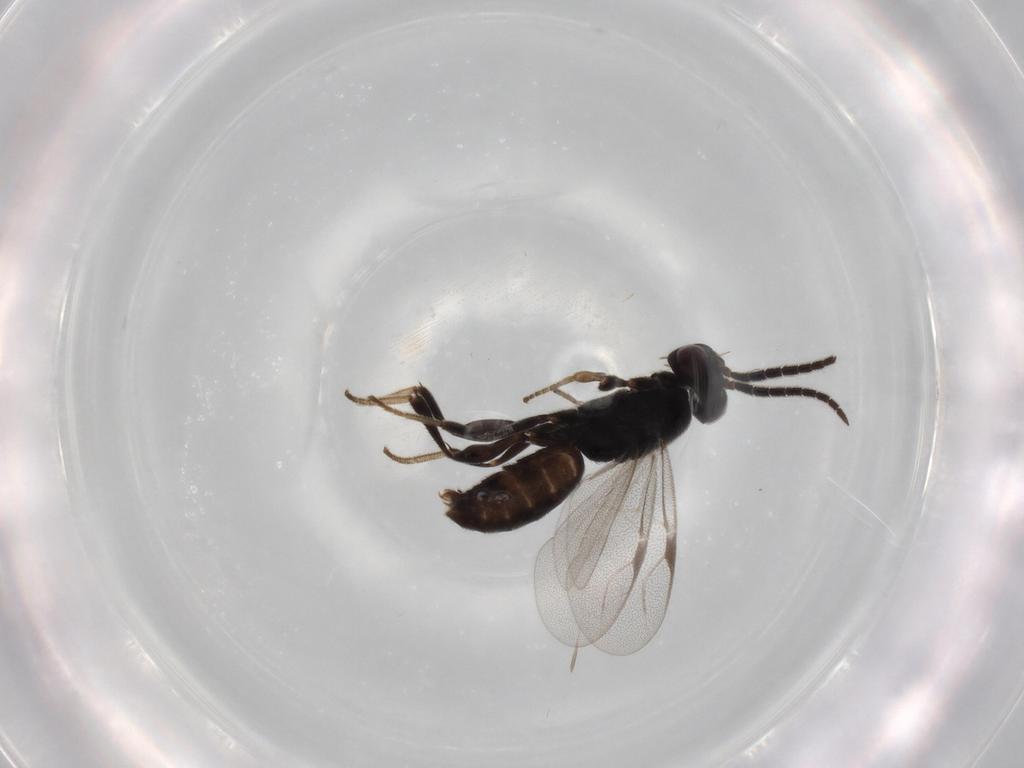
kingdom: Animalia
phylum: Arthropoda
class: Insecta
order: Hymenoptera
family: Dryinidae
